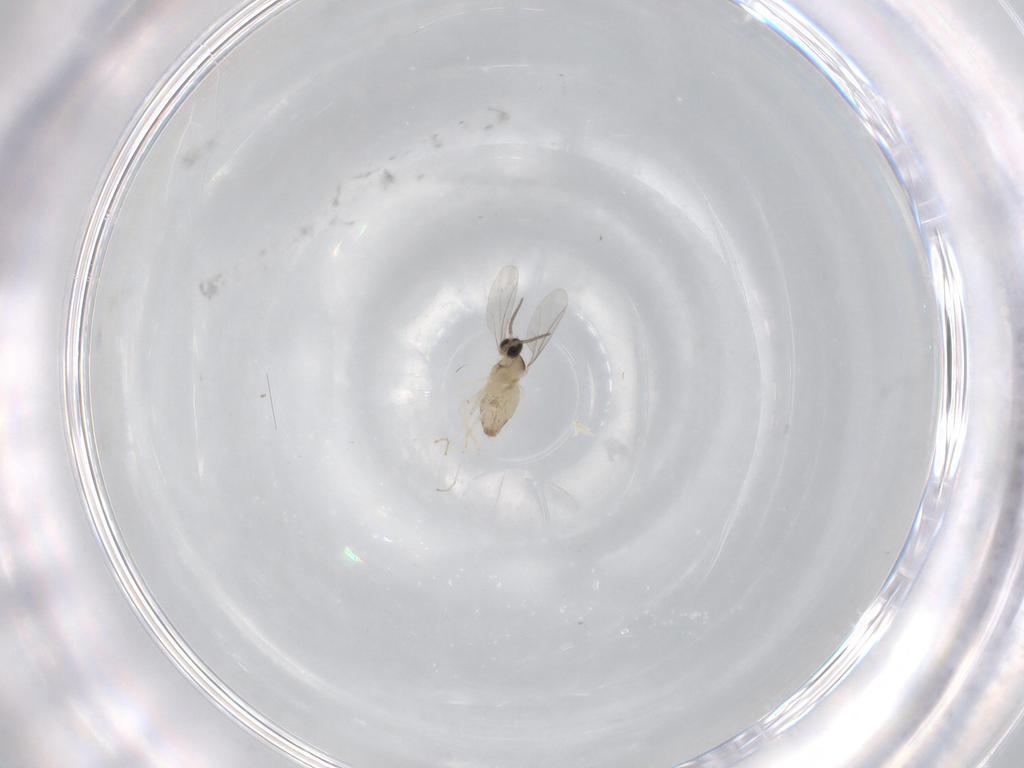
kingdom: Animalia
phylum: Arthropoda
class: Insecta
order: Diptera
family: Cecidomyiidae
